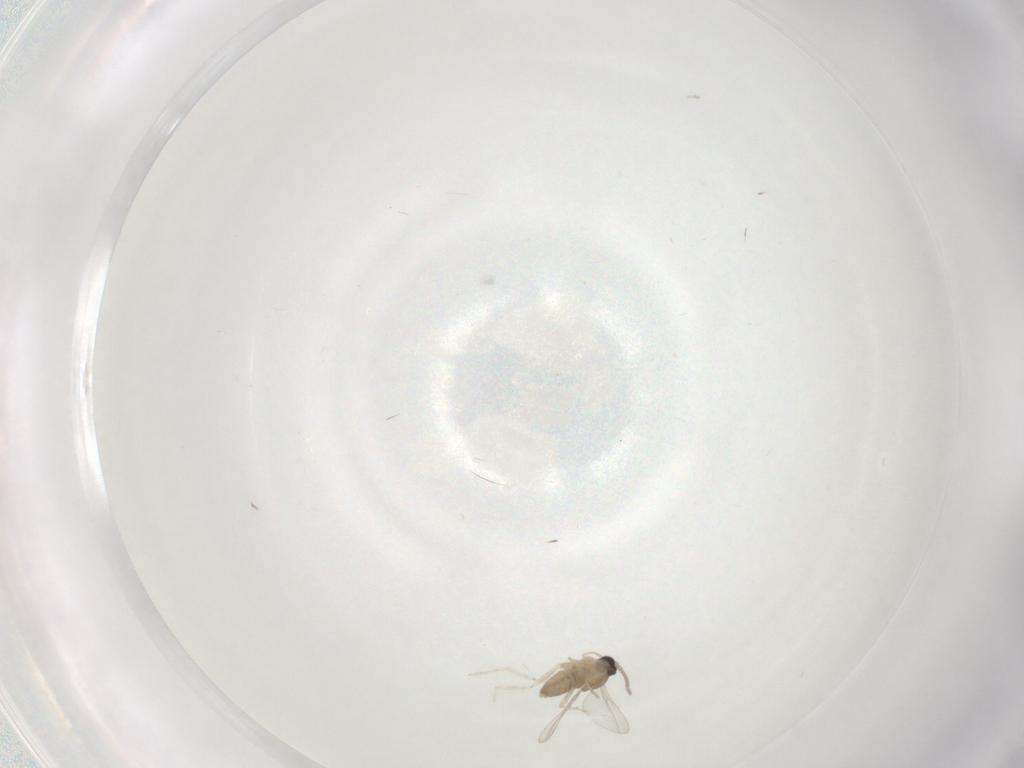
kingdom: Animalia
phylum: Arthropoda
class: Insecta
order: Diptera
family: Cecidomyiidae
